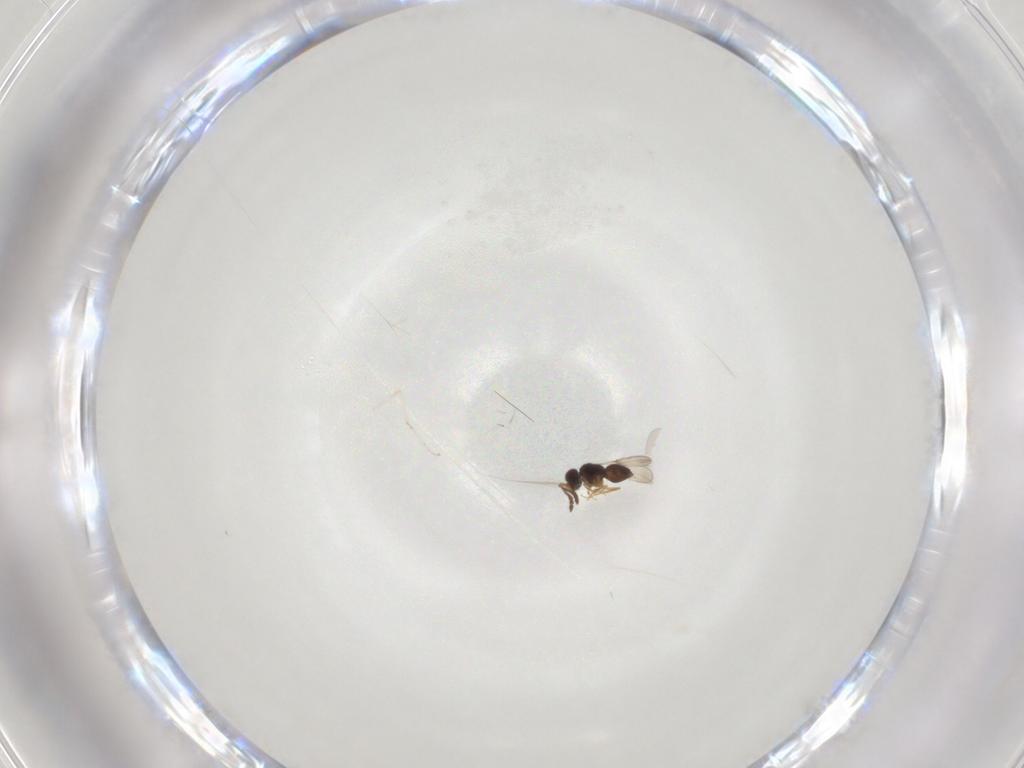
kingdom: Animalia
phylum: Arthropoda
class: Insecta
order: Hymenoptera
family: Ceraphronidae
